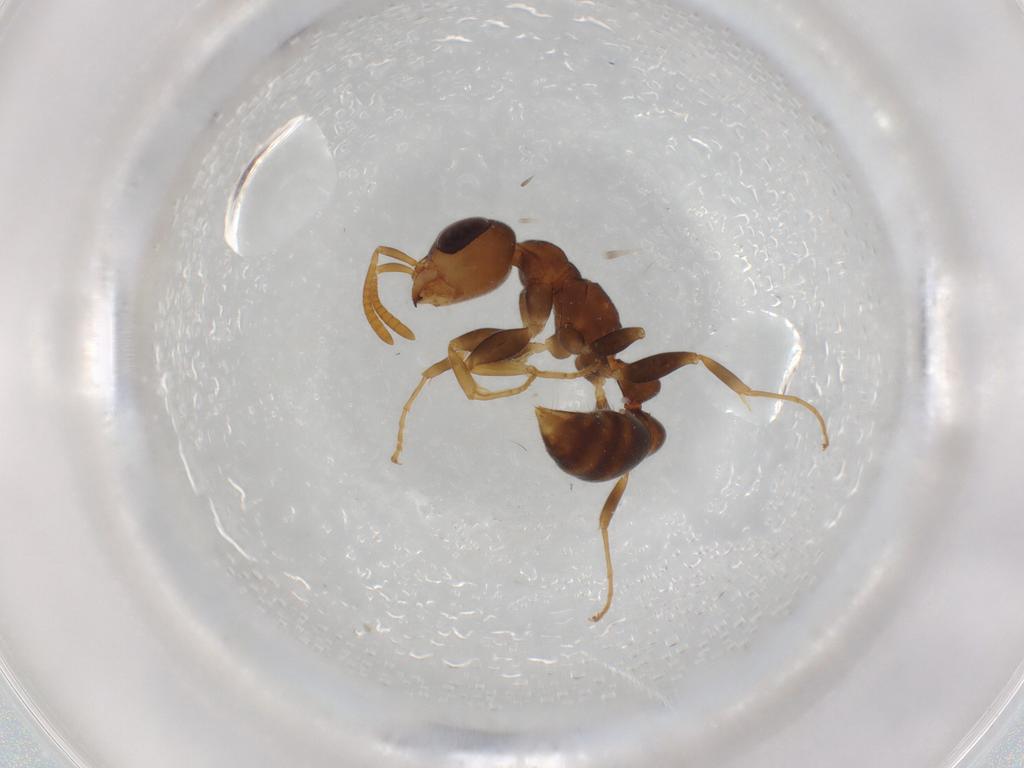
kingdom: Animalia
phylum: Arthropoda
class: Insecta
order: Hymenoptera
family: Formicidae
